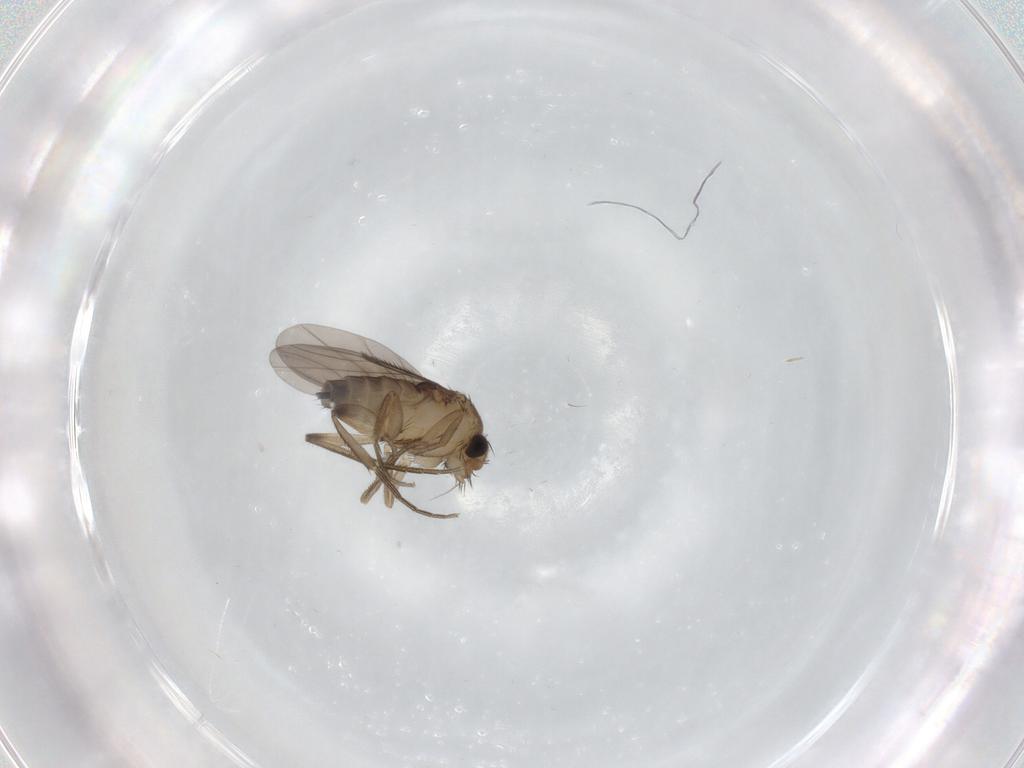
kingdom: Animalia
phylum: Arthropoda
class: Insecta
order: Diptera
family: Phoridae
